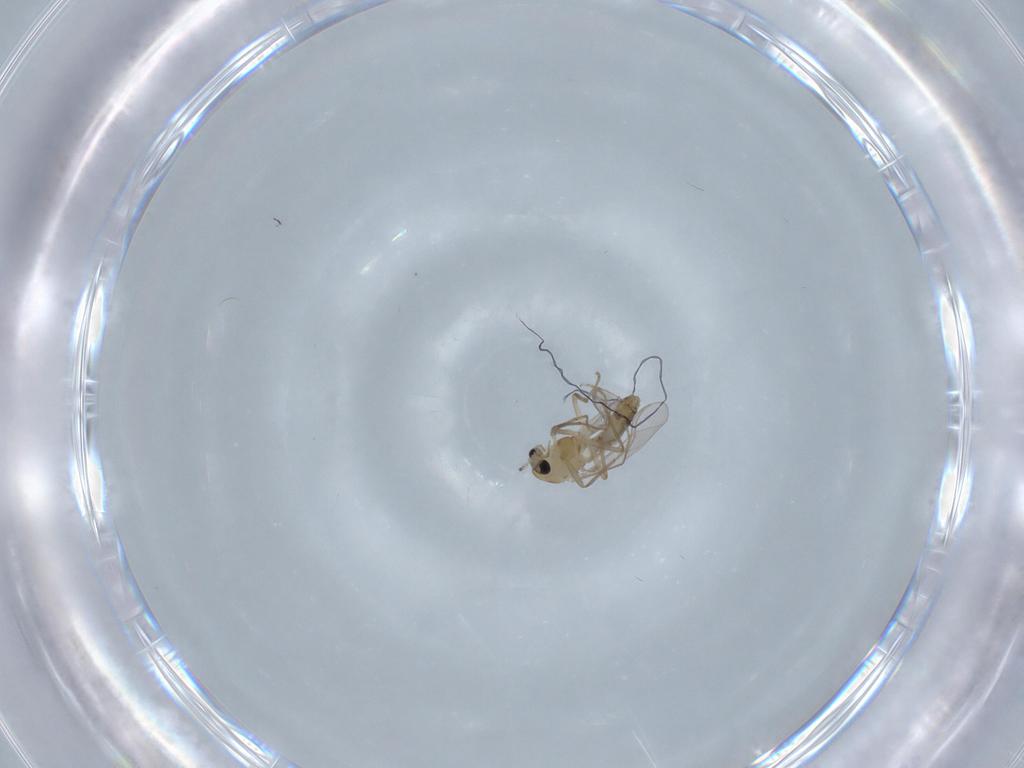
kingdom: Animalia
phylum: Arthropoda
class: Insecta
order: Diptera
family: Chironomidae
